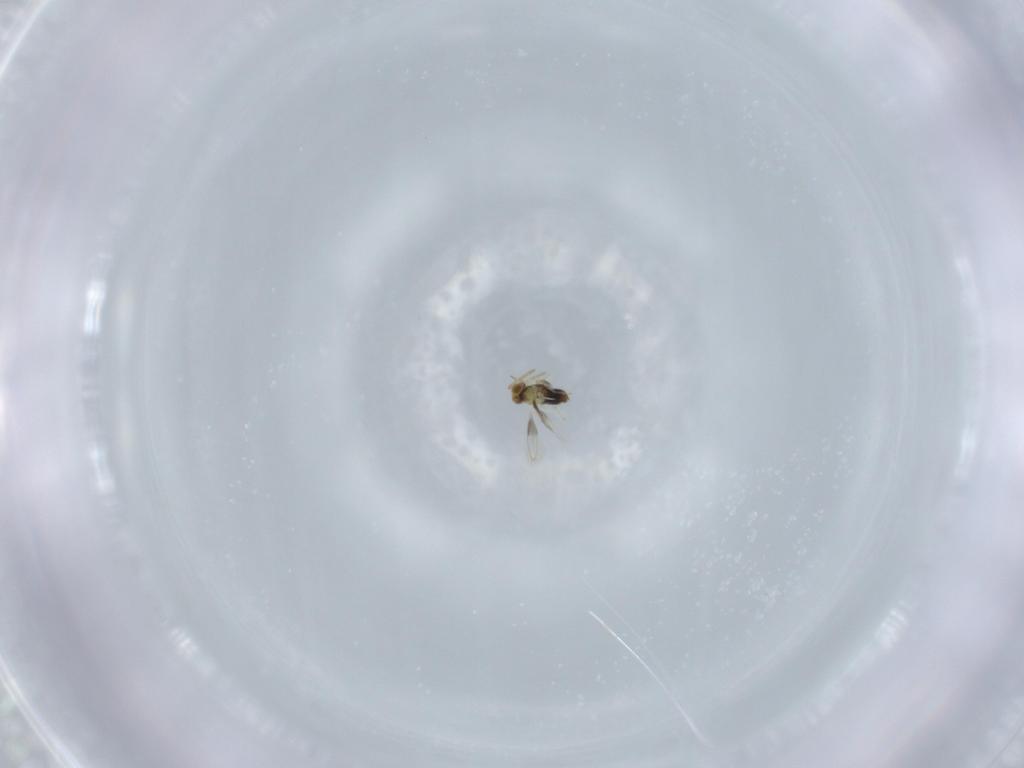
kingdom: Animalia
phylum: Arthropoda
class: Insecta
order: Hymenoptera
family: Aphelinidae
